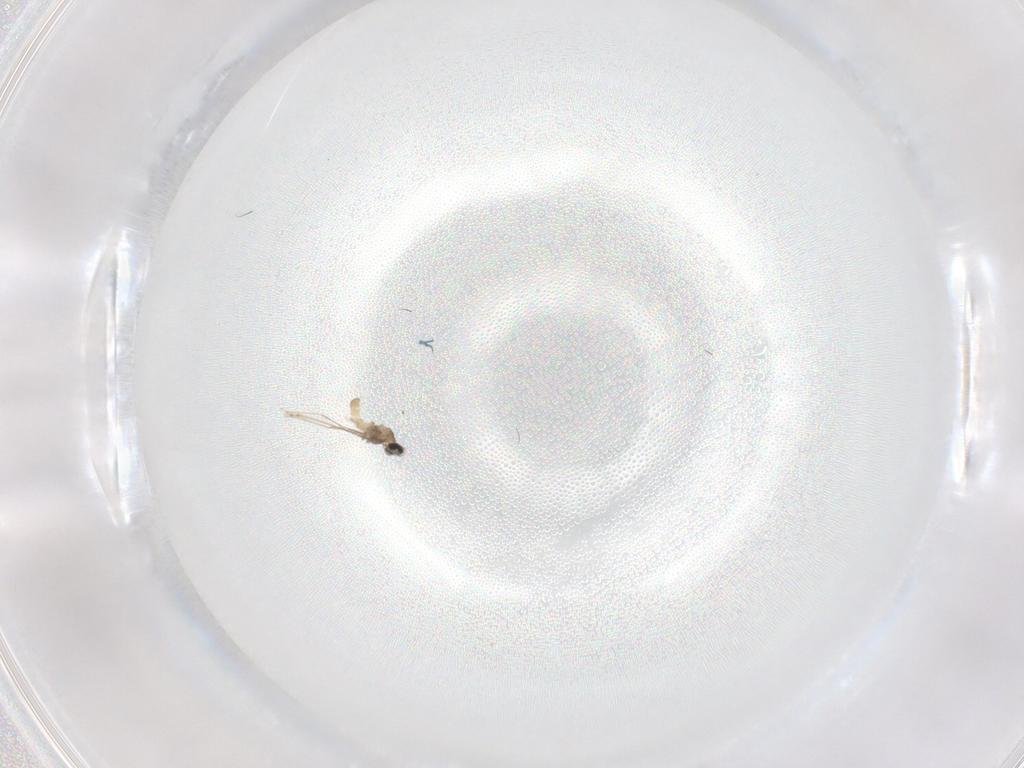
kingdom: Animalia
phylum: Arthropoda
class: Insecta
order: Diptera
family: Cecidomyiidae
